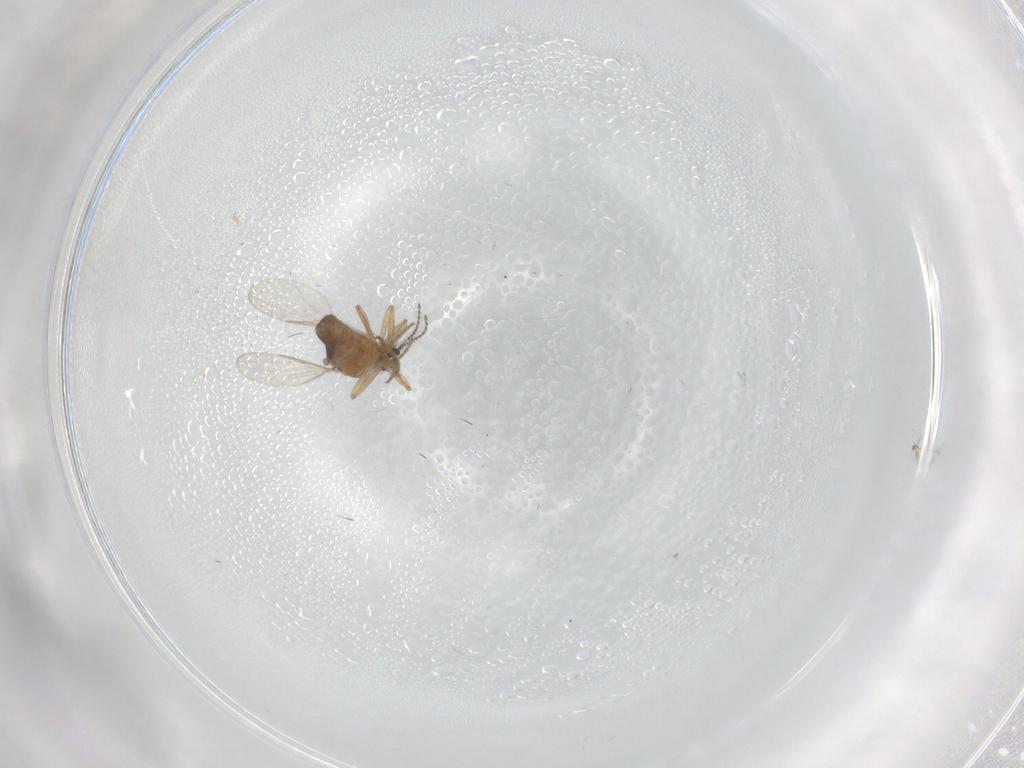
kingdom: Animalia
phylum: Arthropoda
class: Insecta
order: Diptera
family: Ceratopogonidae
